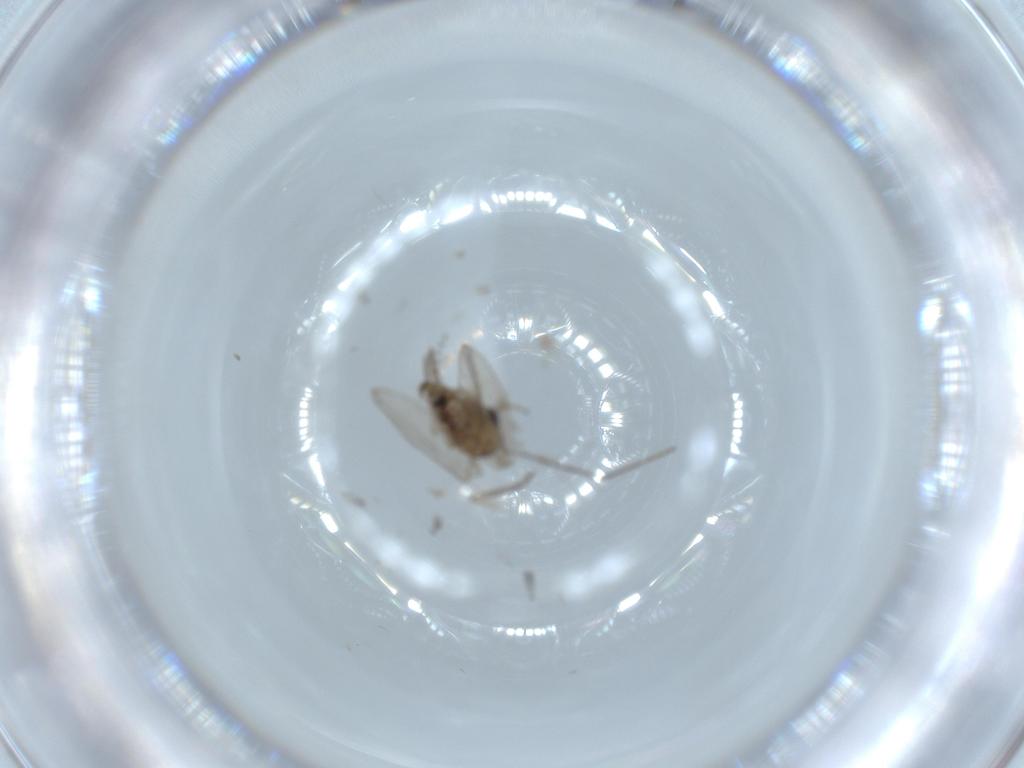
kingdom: Animalia
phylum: Arthropoda
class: Insecta
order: Diptera
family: Psychodidae
